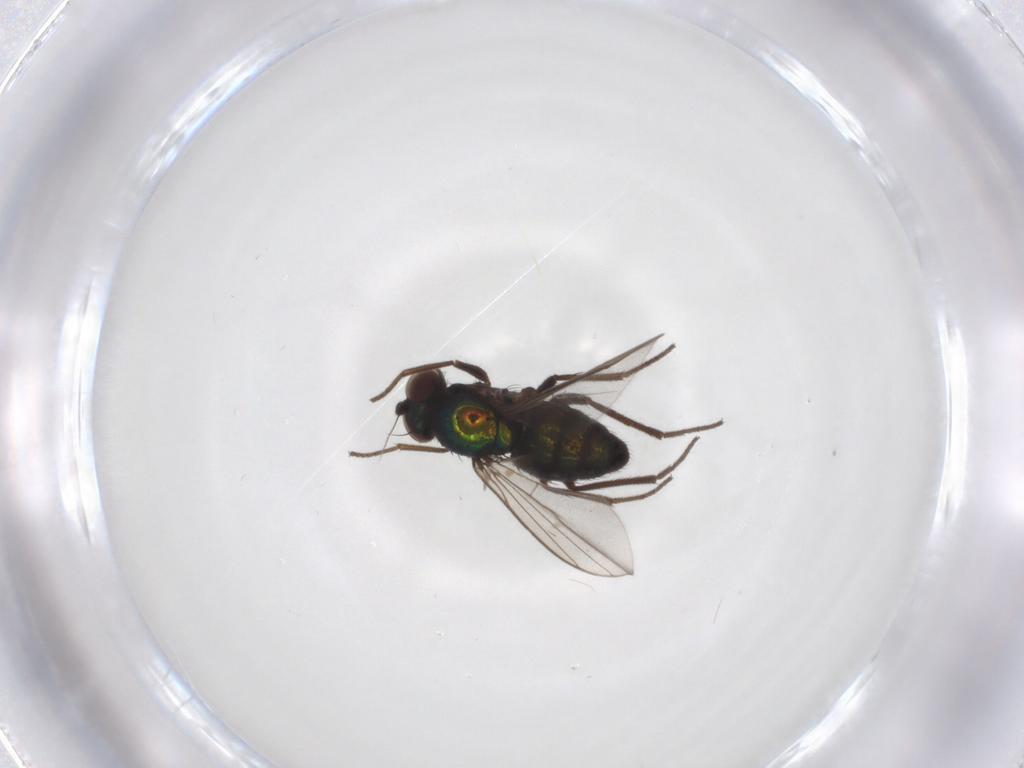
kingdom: Animalia
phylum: Arthropoda
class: Insecta
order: Diptera
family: Dolichopodidae
